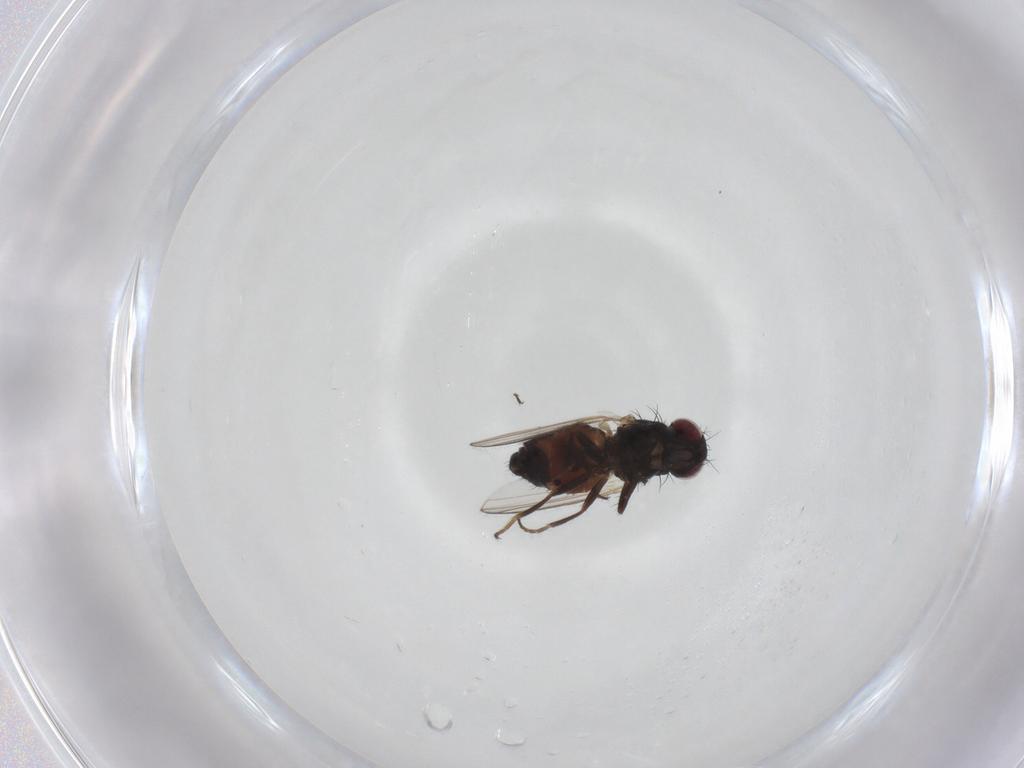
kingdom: Animalia
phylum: Arthropoda
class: Insecta
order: Diptera
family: Carnidae
